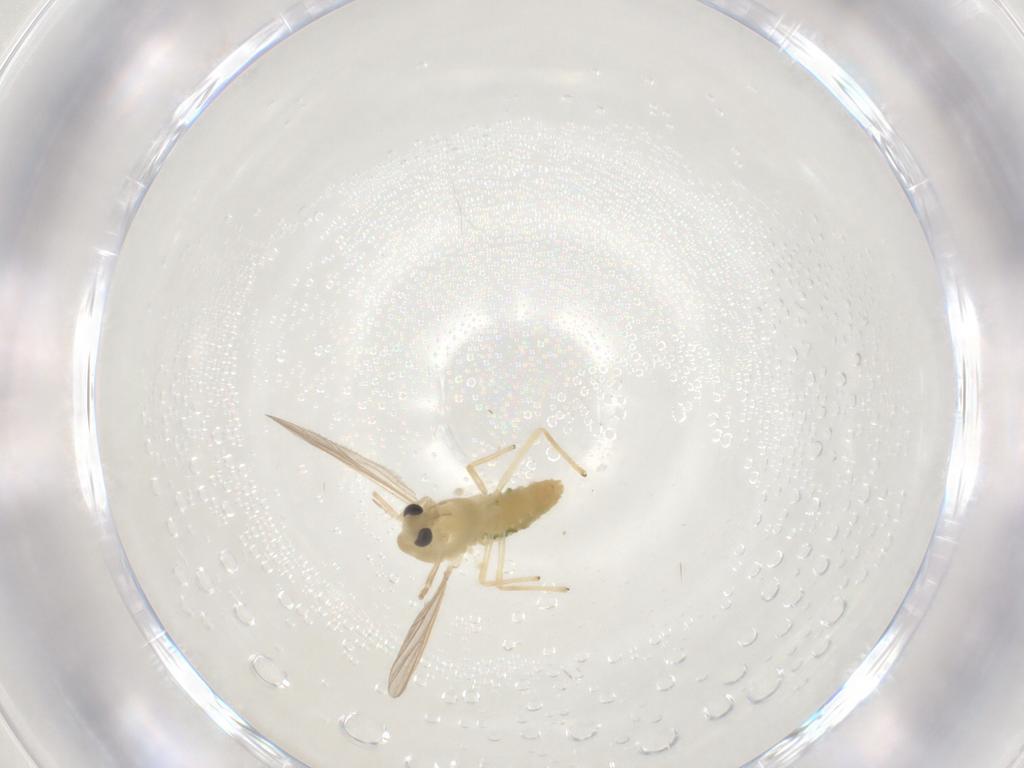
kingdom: Animalia
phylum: Arthropoda
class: Insecta
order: Diptera
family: Chironomidae
